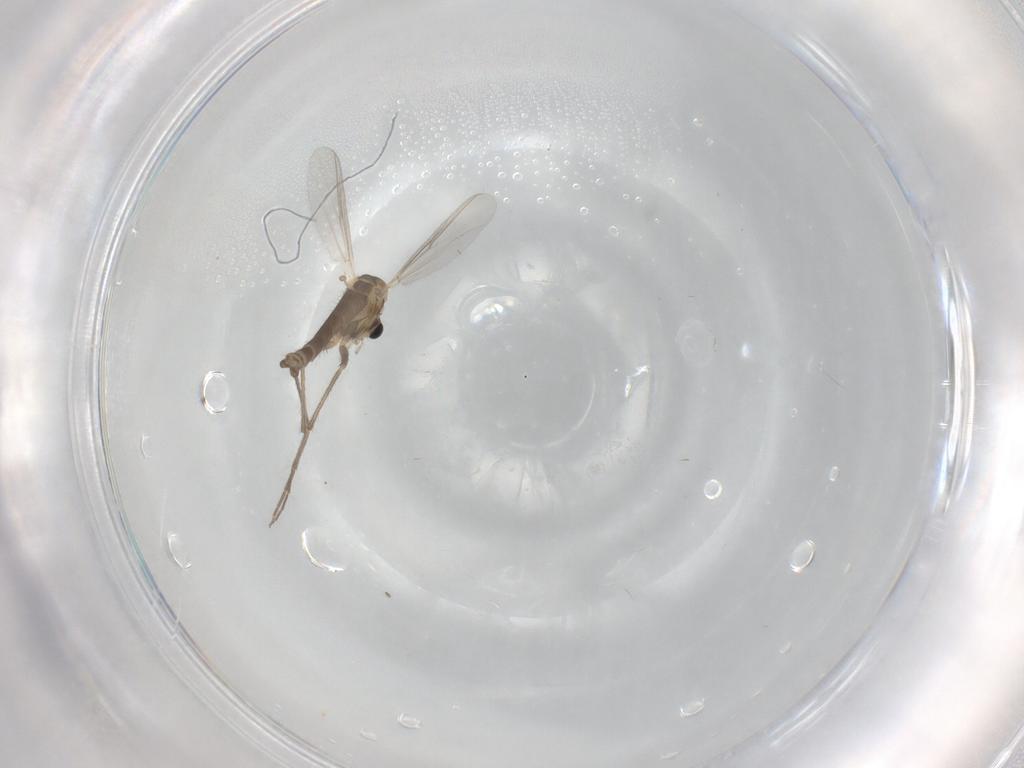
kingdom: Animalia
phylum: Arthropoda
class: Insecta
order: Diptera
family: Chironomidae
